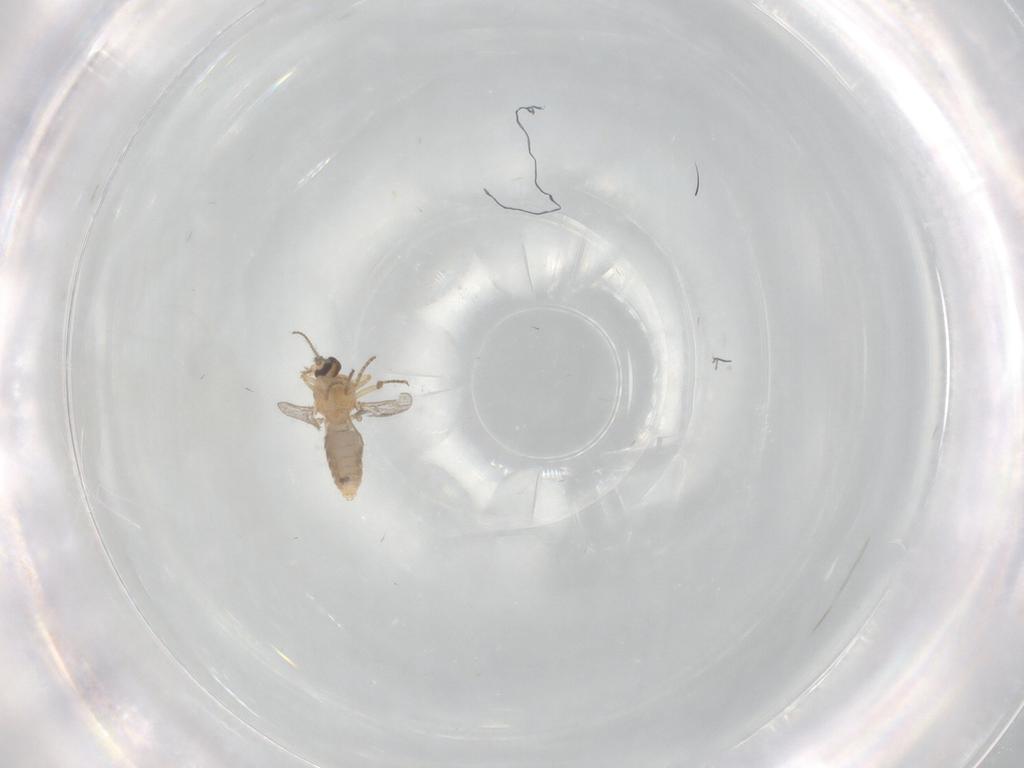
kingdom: Animalia
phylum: Arthropoda
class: Insecta
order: Diptera
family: Ceratopogonidae
